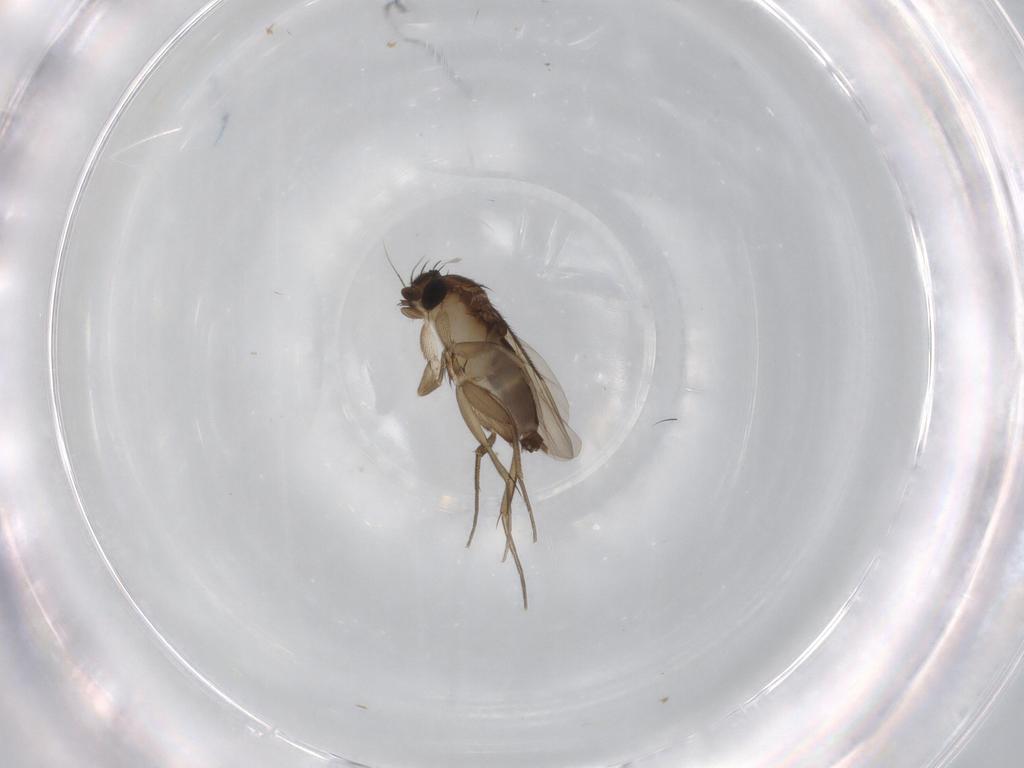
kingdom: Animalia
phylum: Arthropoda
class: Insecta
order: Diptera
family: Phoridae
